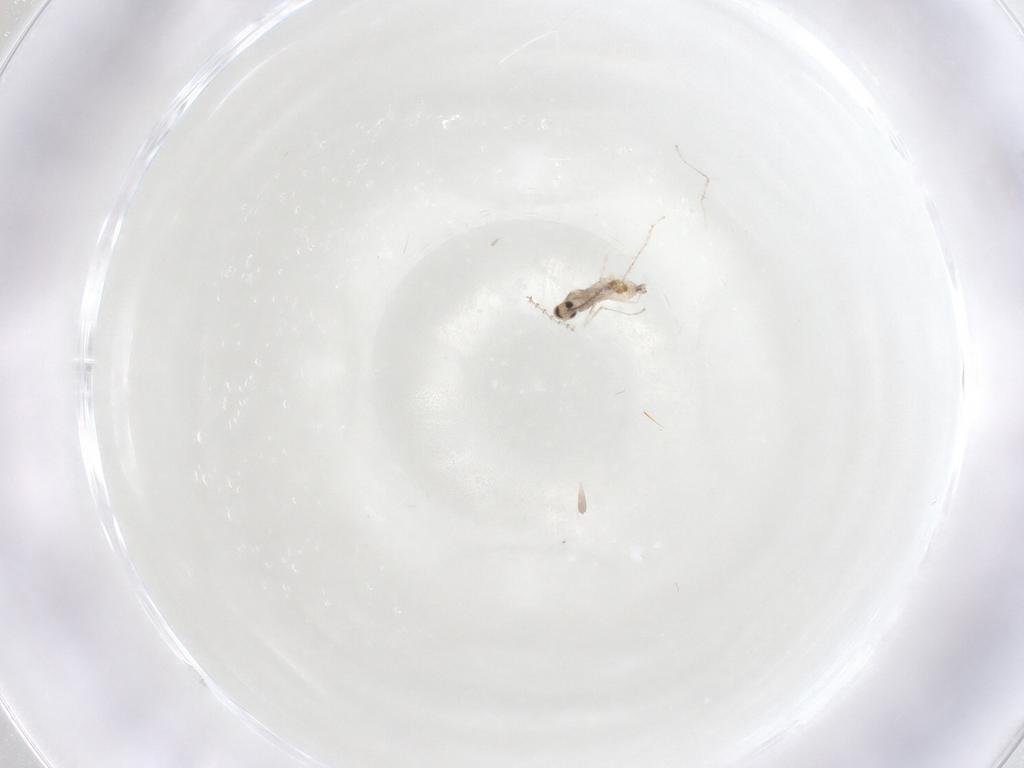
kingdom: Animalia
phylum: Arthropoda
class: Insecta
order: Diptera
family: Cecidomyiidae
